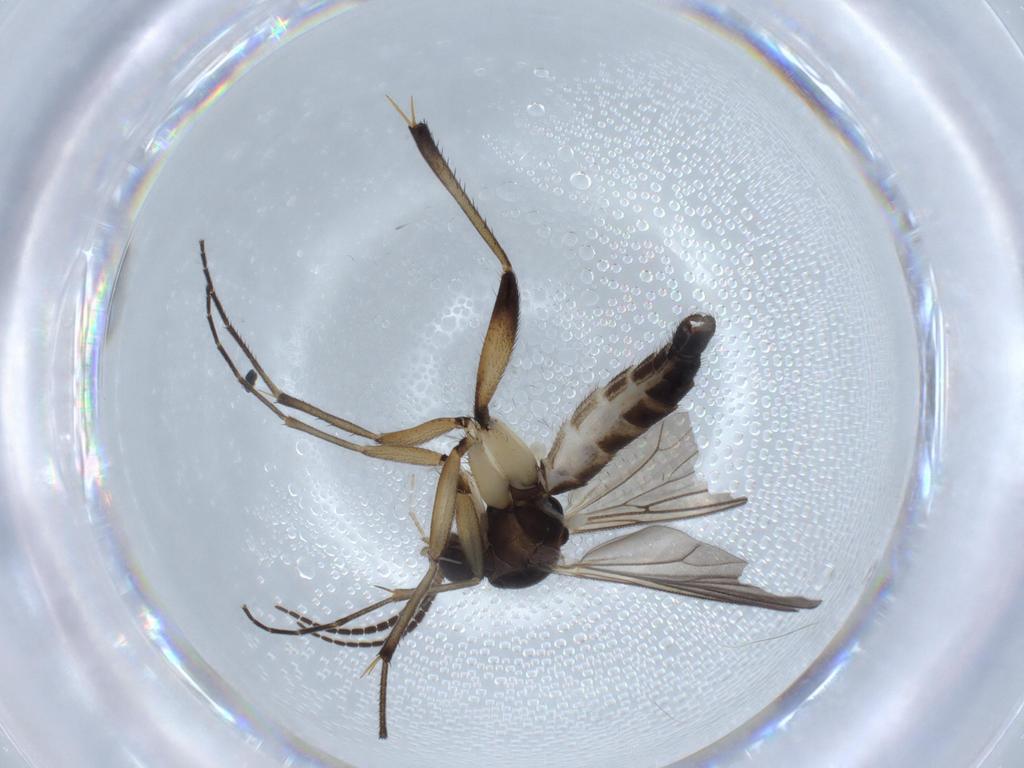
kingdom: Animalia
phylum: Arthropoda
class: Insecta
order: Diptera
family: Mycetophilidae
